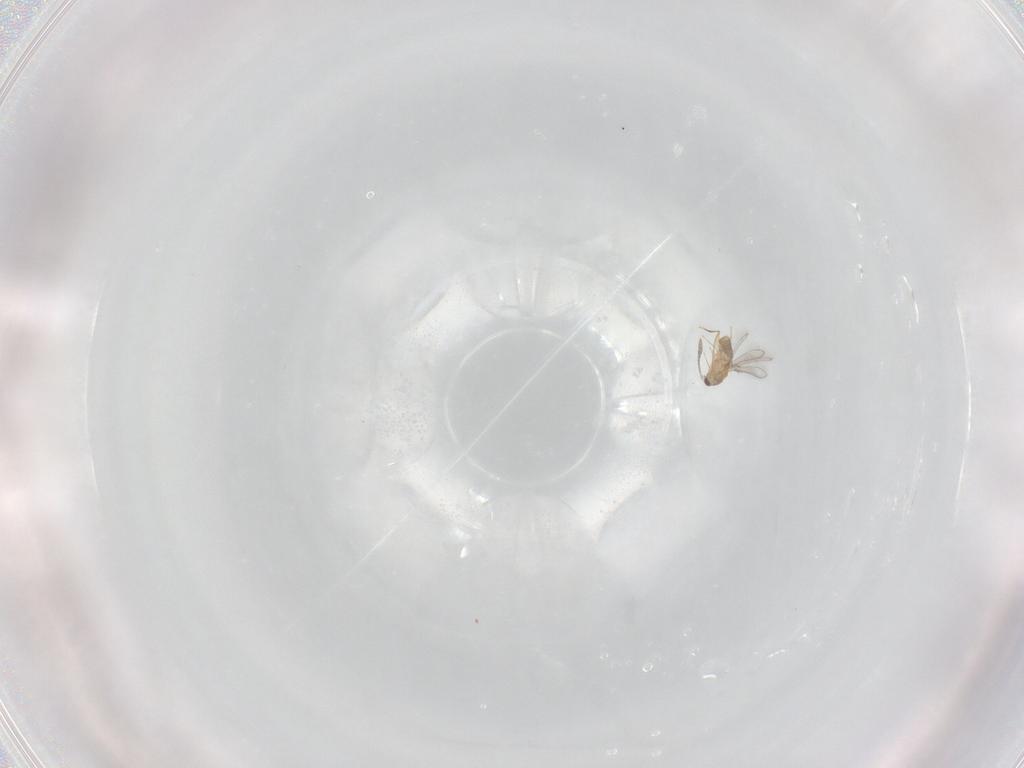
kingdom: Animalia
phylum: Arthropoda
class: Insecta
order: Hymenoptera
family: Mymaridae
